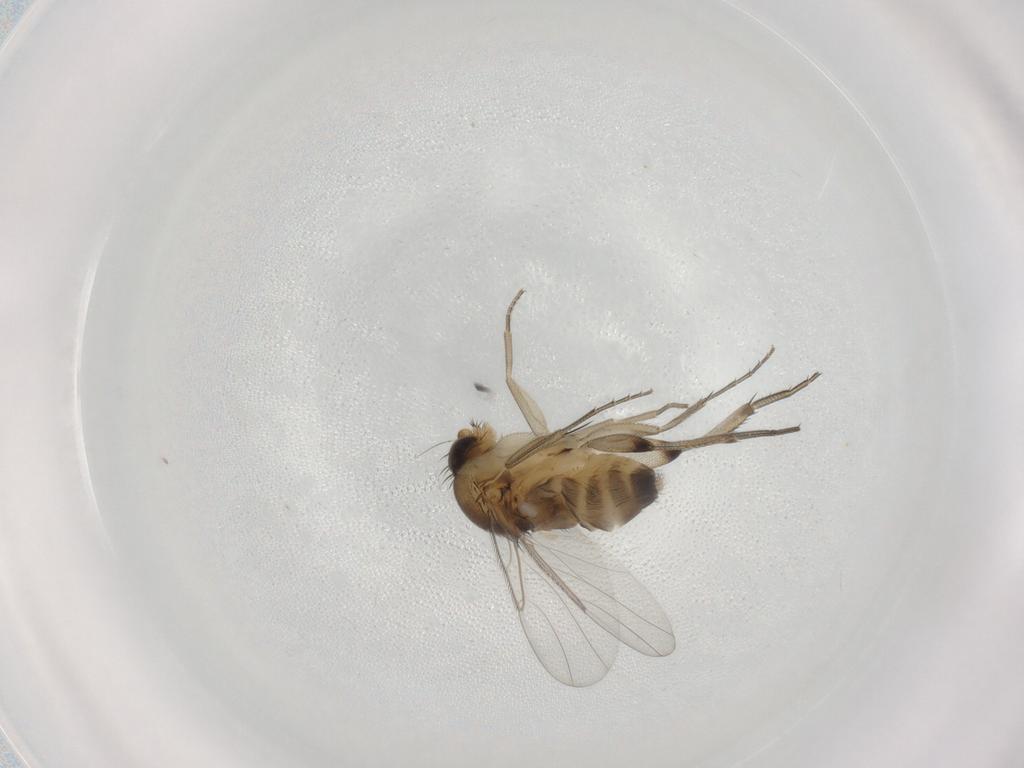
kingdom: Animalia
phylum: Arthropoda
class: Insecta
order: Diptera
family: Phoridae
